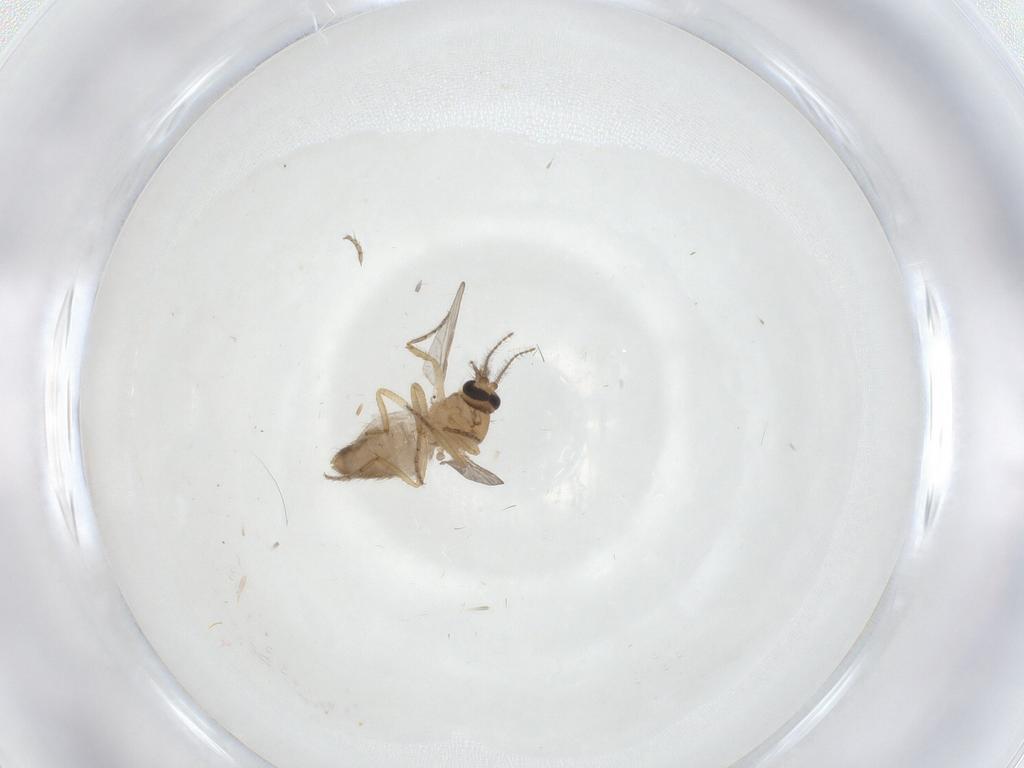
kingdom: Animalia
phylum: Arthropoda
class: Insecta
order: Diptera
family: Ceratopogonidae
